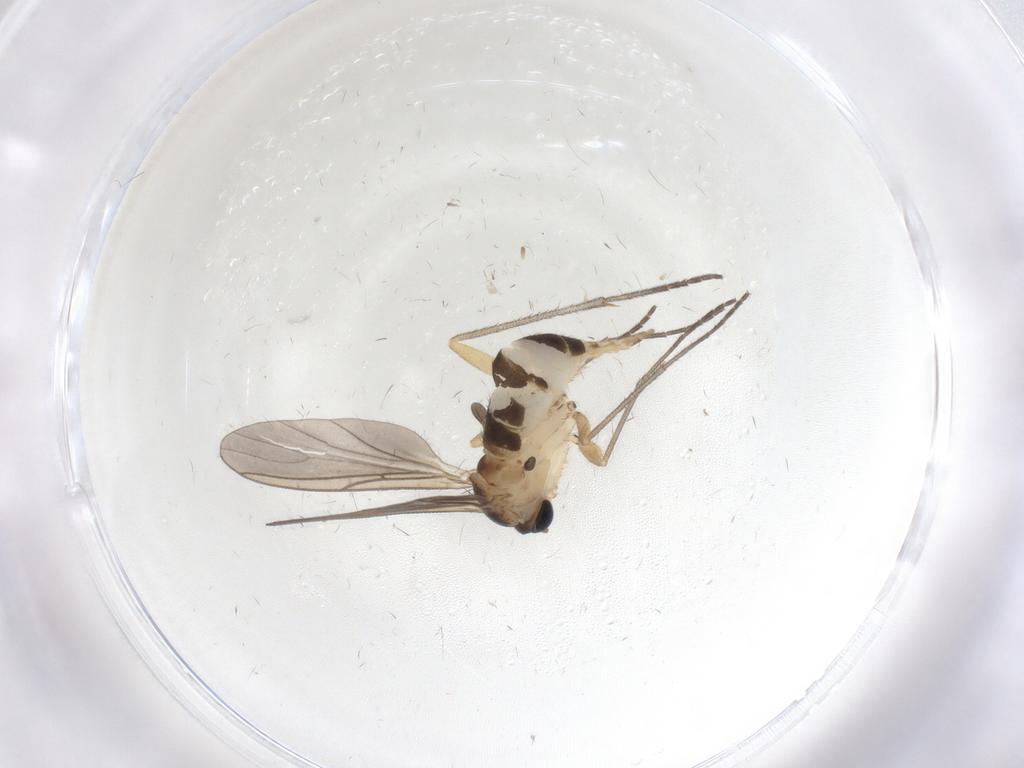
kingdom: Animalia
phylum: Arthropoda
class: Insecta
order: Diptera
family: Sciaridae
